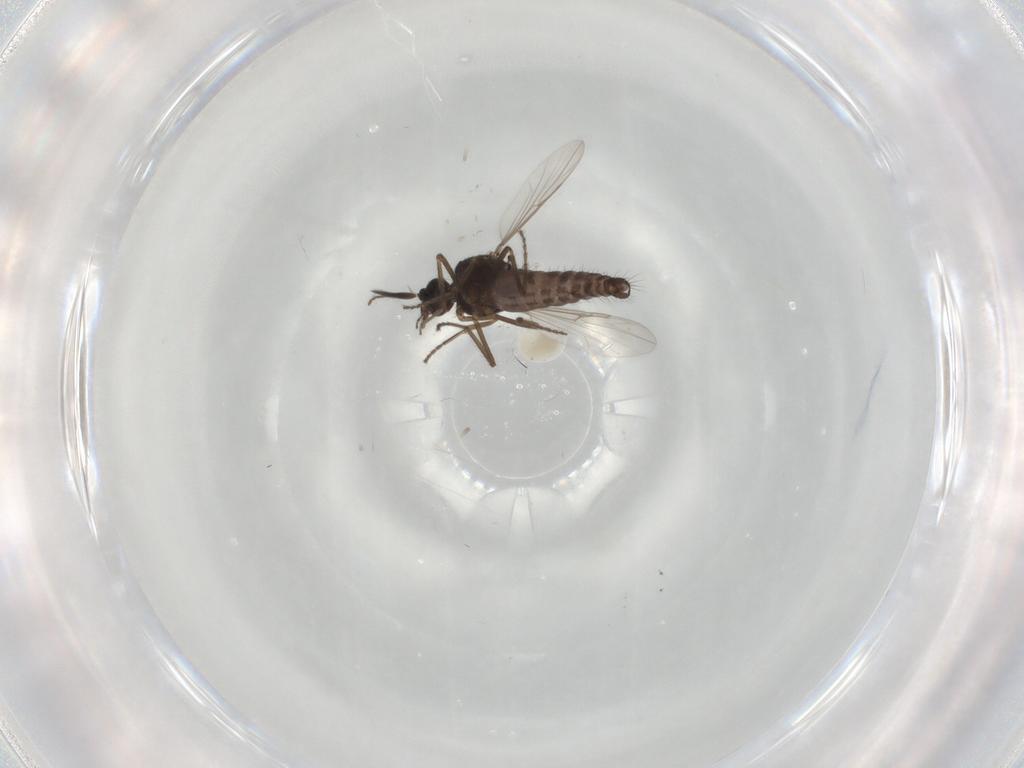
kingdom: Animalia
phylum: Arthropoda
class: Insecta
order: Diptera
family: Ceratopogonidae
